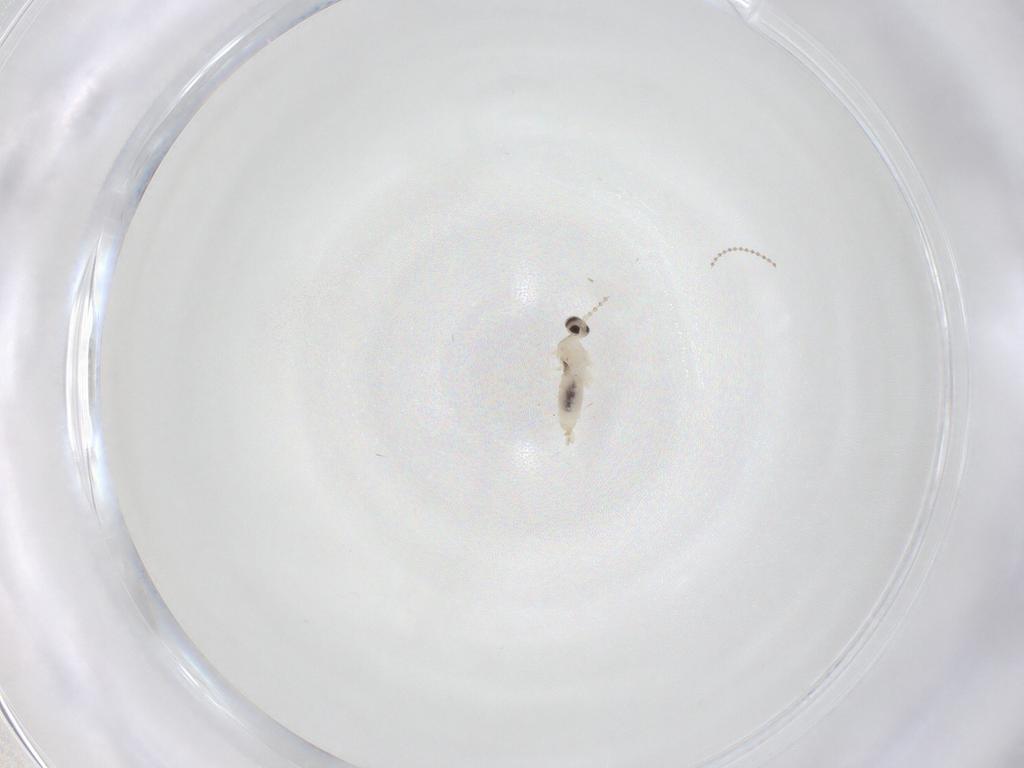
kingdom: Animalia
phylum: Arthropoda
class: Insecta
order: Diptera
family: Cecidomyiidae
